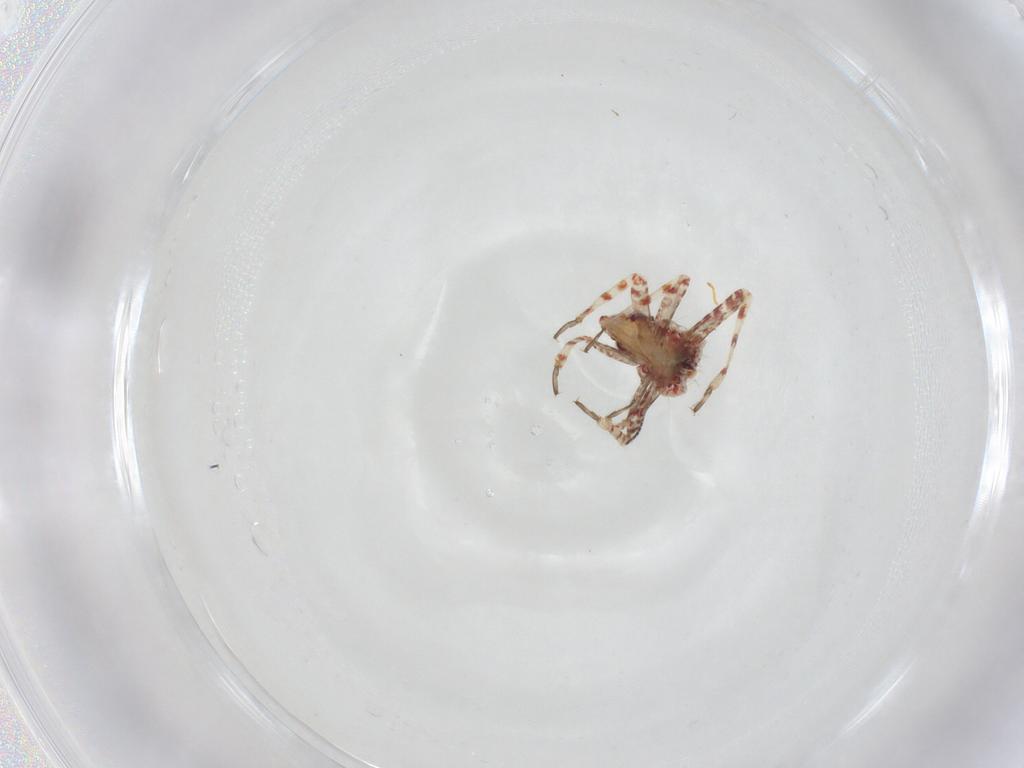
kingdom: Animalia
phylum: Arthropoda
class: Insecta
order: Hemiptera
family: Miridae
